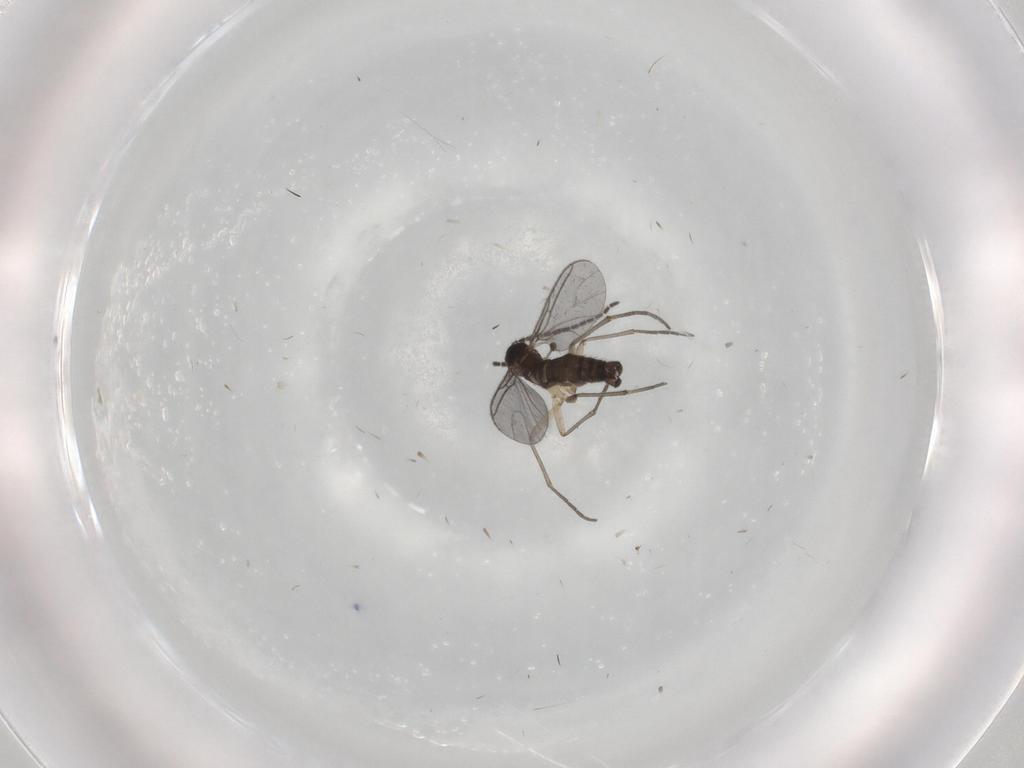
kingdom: Animalia
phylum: Arthropoda
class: Insecta
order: Diptera
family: Sciaridae
